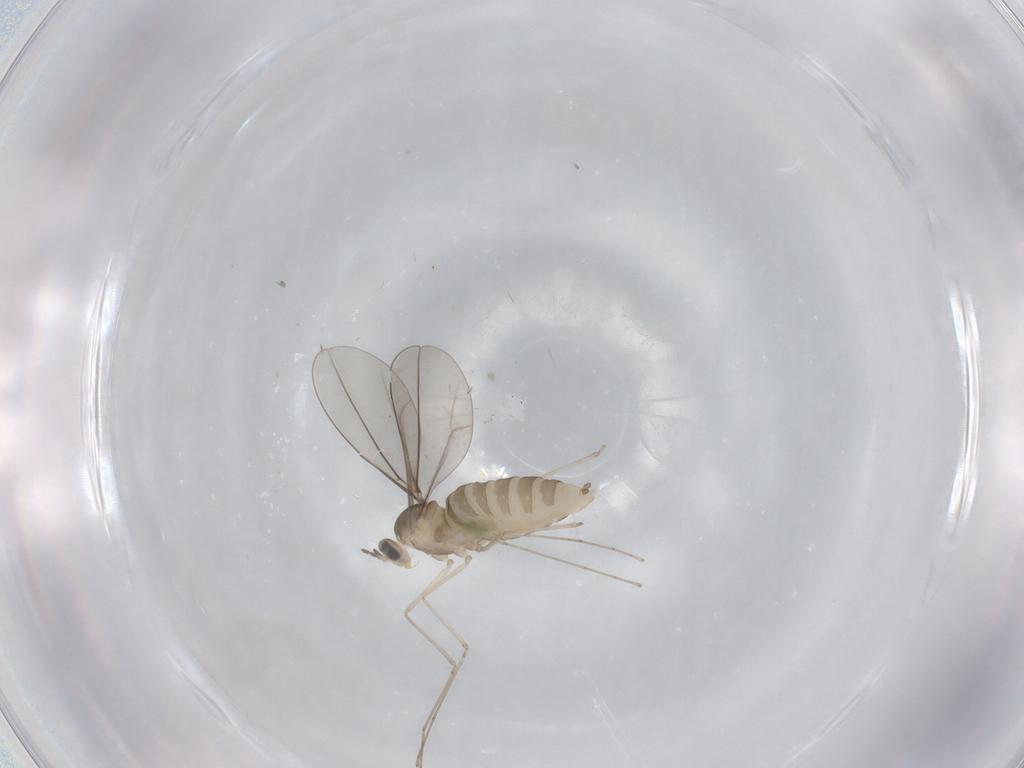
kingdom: Animalia
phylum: Arthropoda
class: Insecta
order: Diptera
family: Cecidomyiidae
